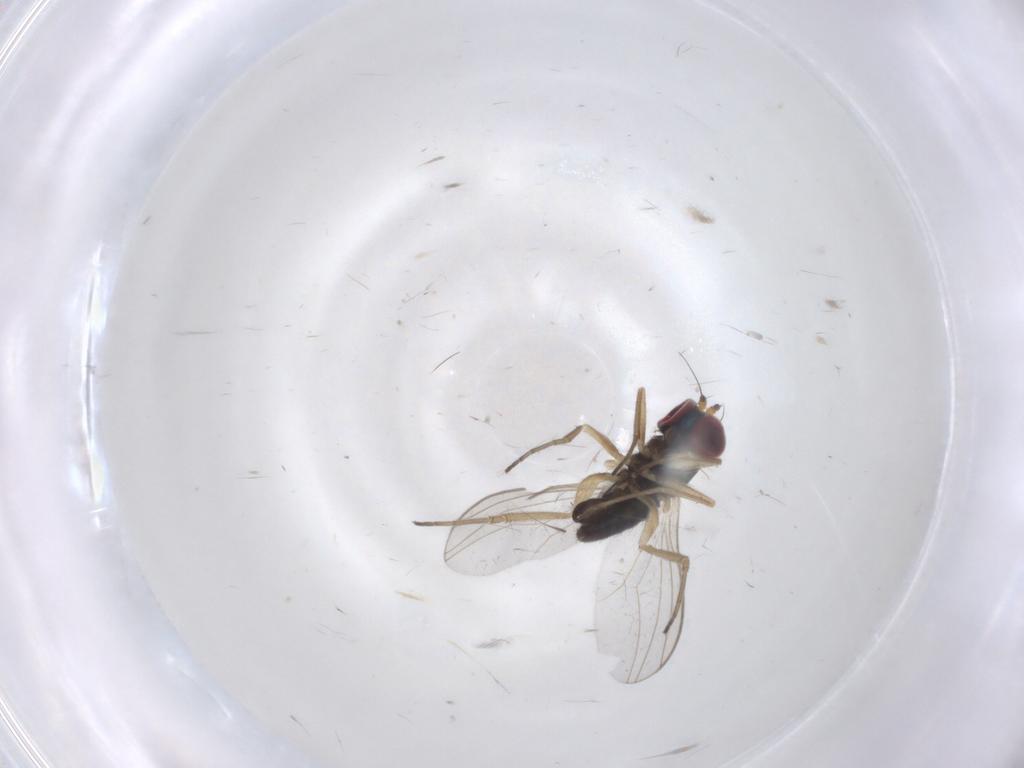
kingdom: Animalia
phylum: Arthropoda
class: Insecta
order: Diptera
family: Dolichopodidae
